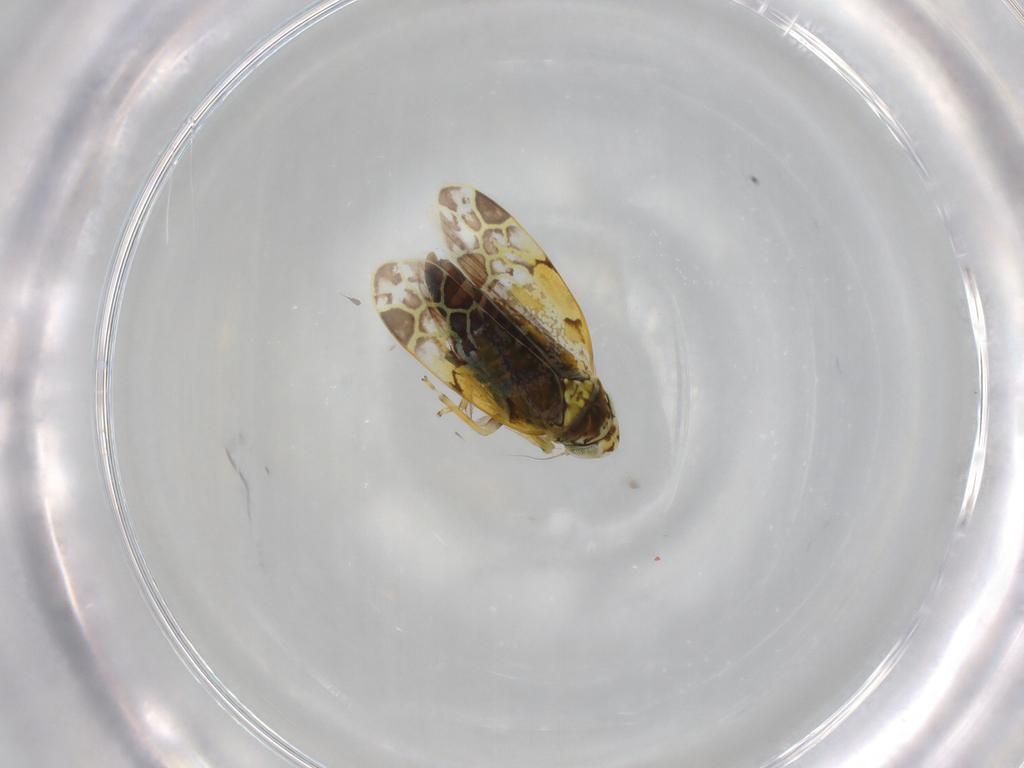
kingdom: Animalia
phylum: Arthropoda
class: Insecta
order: Hemiptera
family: Cicadellidae
